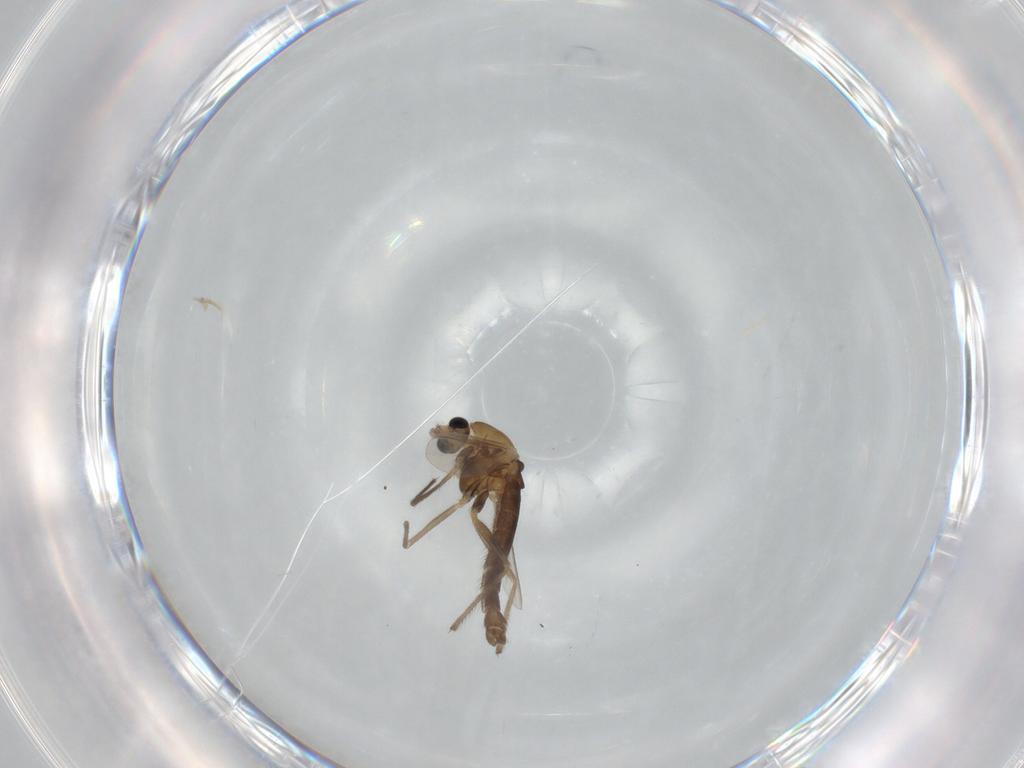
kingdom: Animalia
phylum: Arthropoda
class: Insecta
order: Diptera
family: Chironomidae
